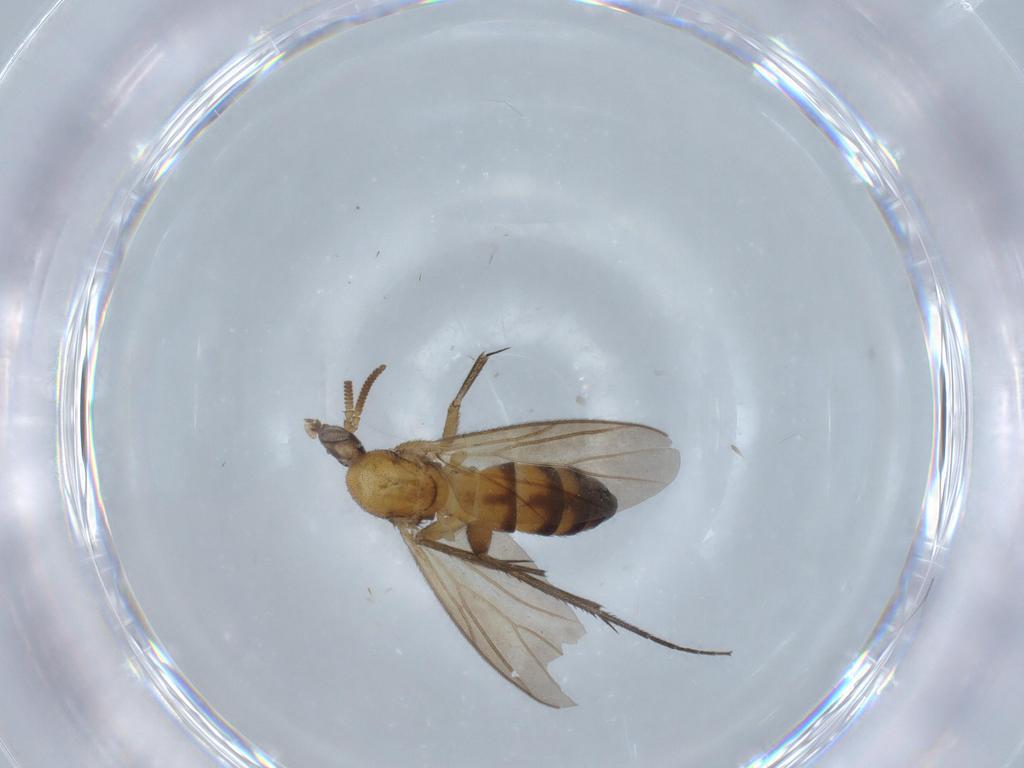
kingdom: Animalia
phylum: Arthropoda
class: Insecta
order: Diptera
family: Mycetophilidae
